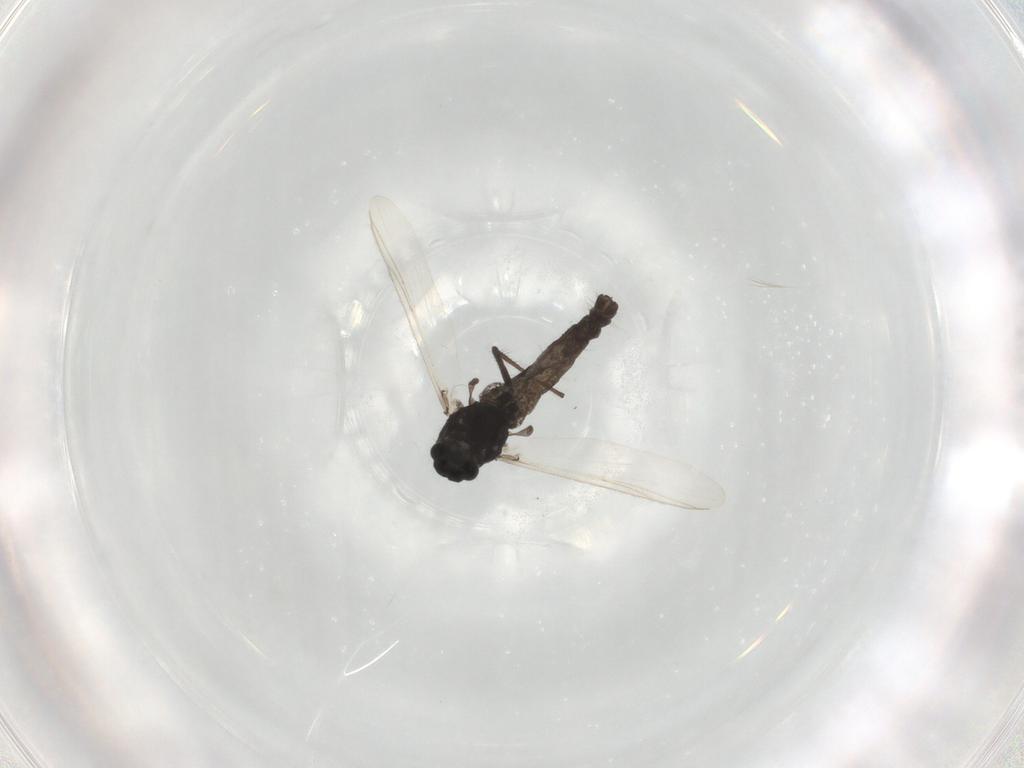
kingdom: Animalia
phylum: Arthropoda
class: Insecta
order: Diptera
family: Chironomidae
